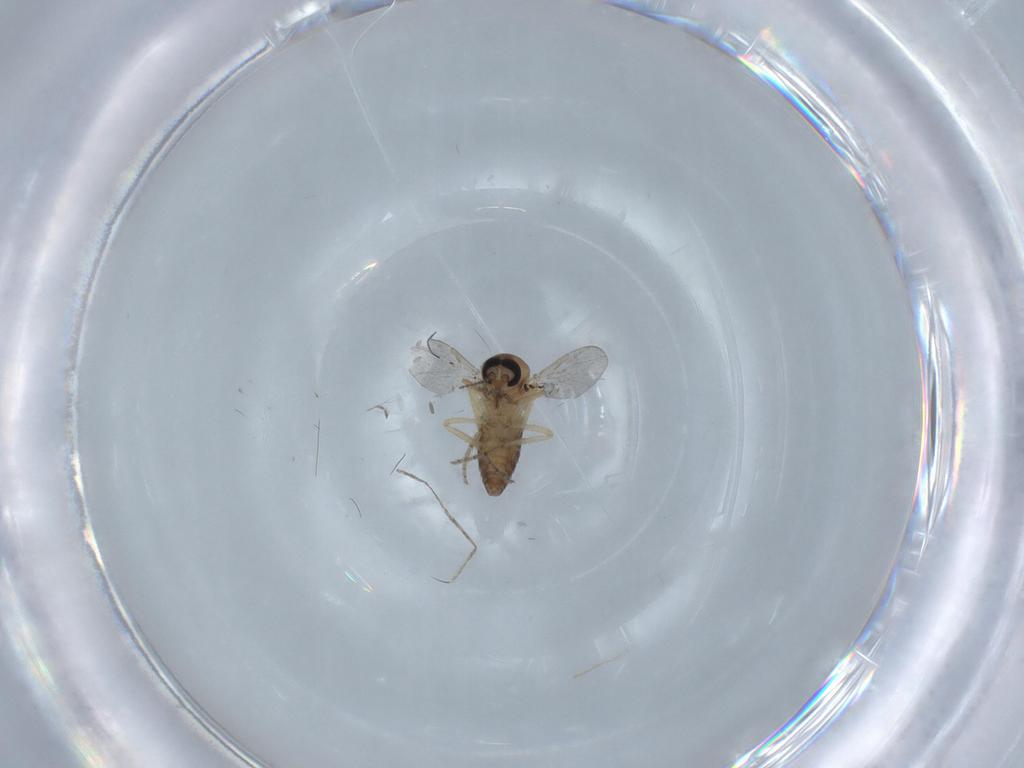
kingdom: Animalia
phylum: Arthropoda
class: Insecta
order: Diptera
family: Ceratopogonidae
